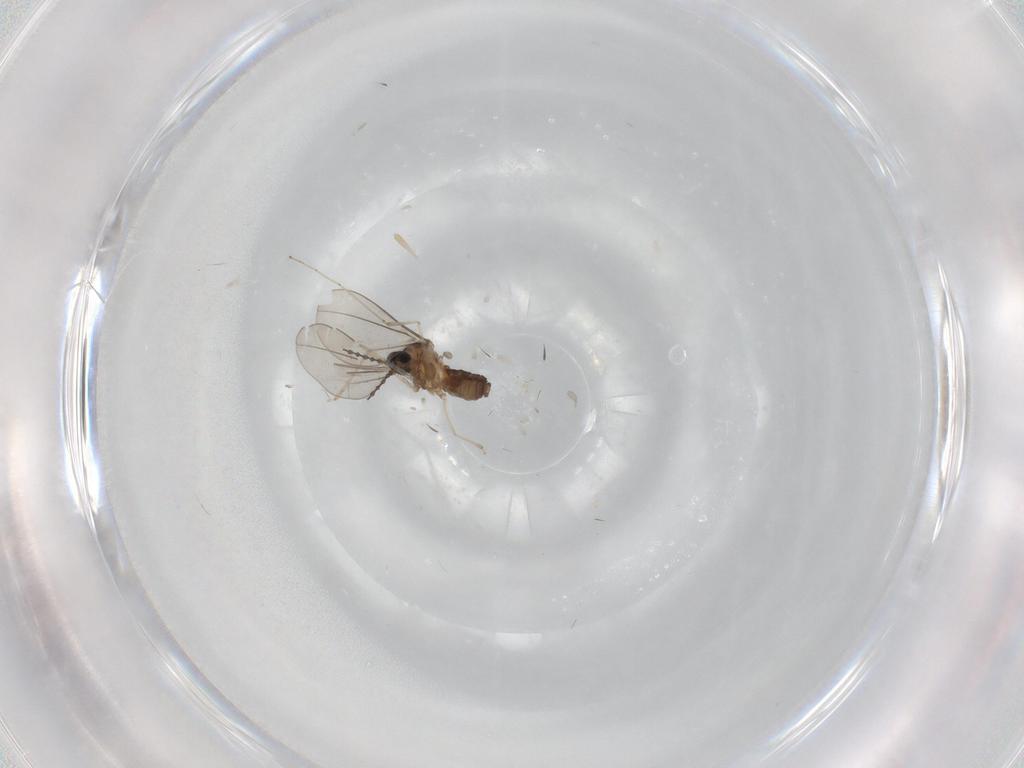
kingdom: Animalia
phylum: Arthropoda
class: Insecta
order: Diptera
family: Cecidomyiidae
